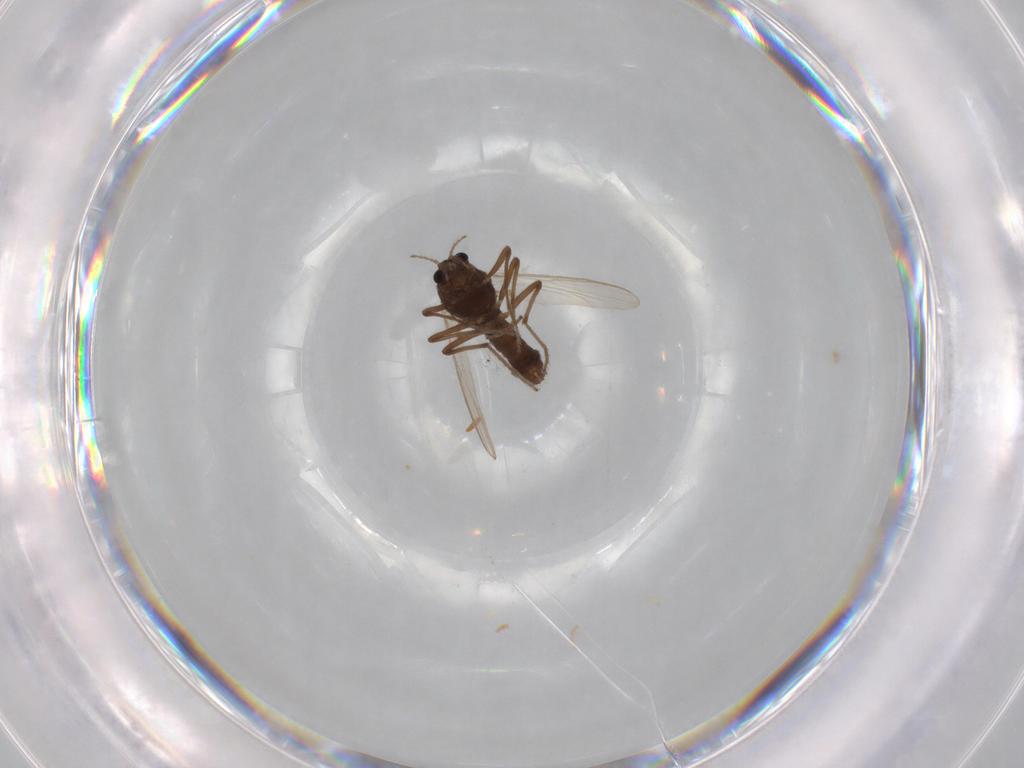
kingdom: Animalia
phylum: Arthropoda
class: Insecta
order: Diptera
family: Chironomidae
